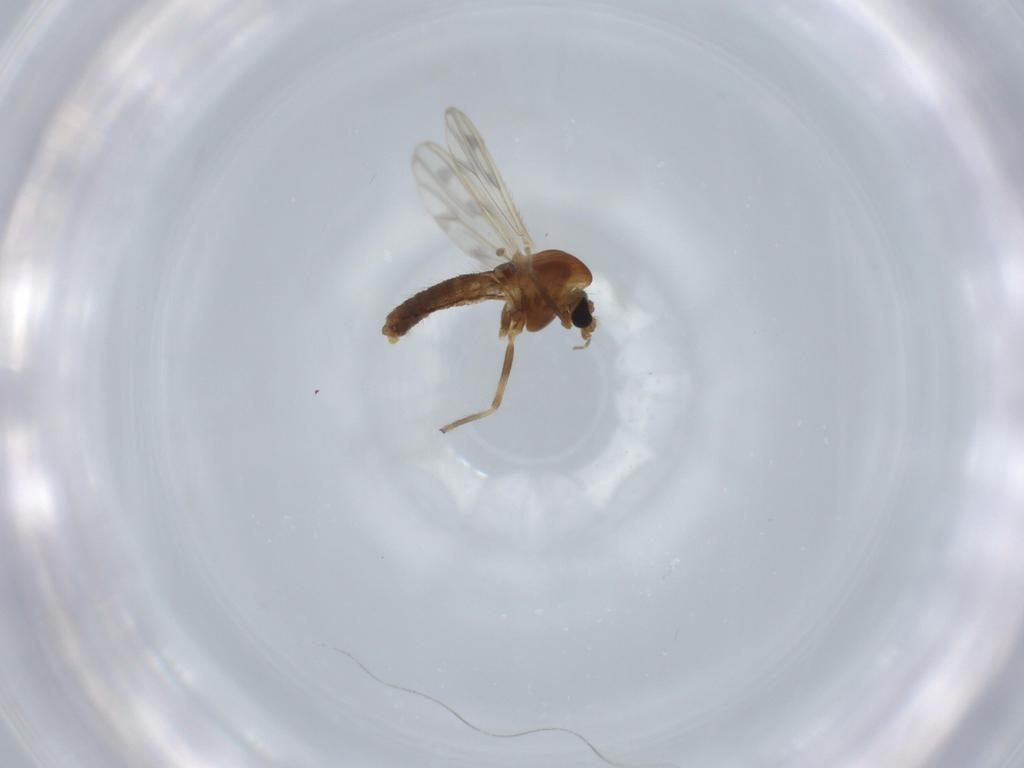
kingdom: Animalia
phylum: Arthropoda
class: Insecta
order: Diptera
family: Chironomidae
